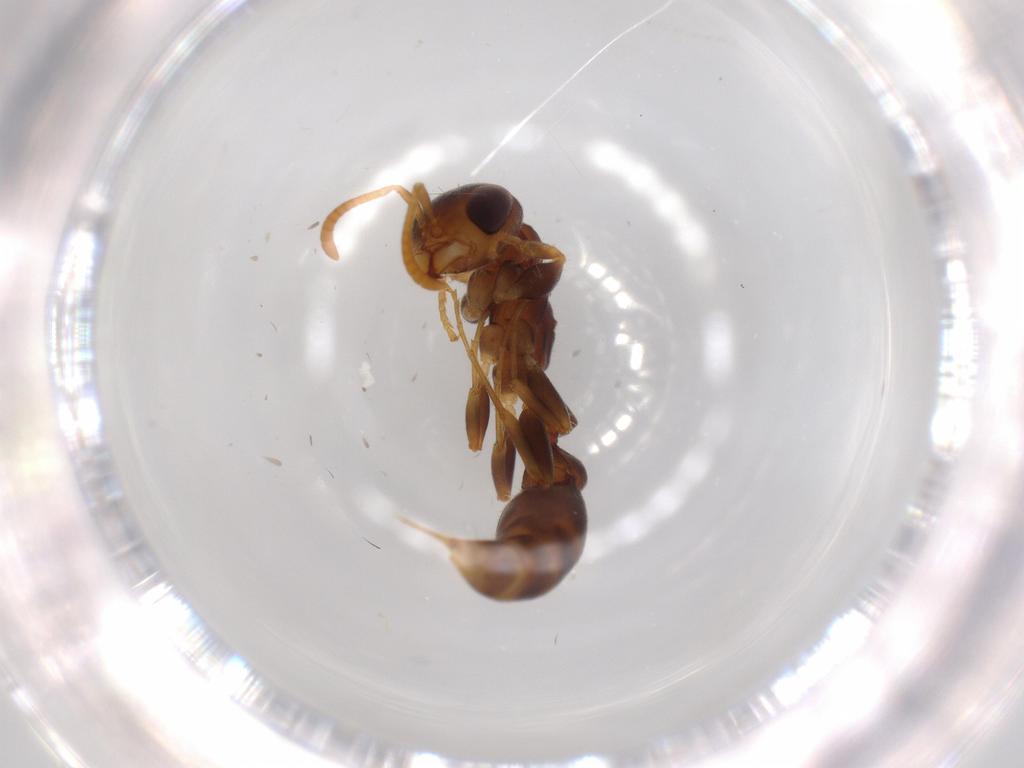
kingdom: Animalia
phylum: Arthropoda
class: Insecta
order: Hymenoptera
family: Formicidae
